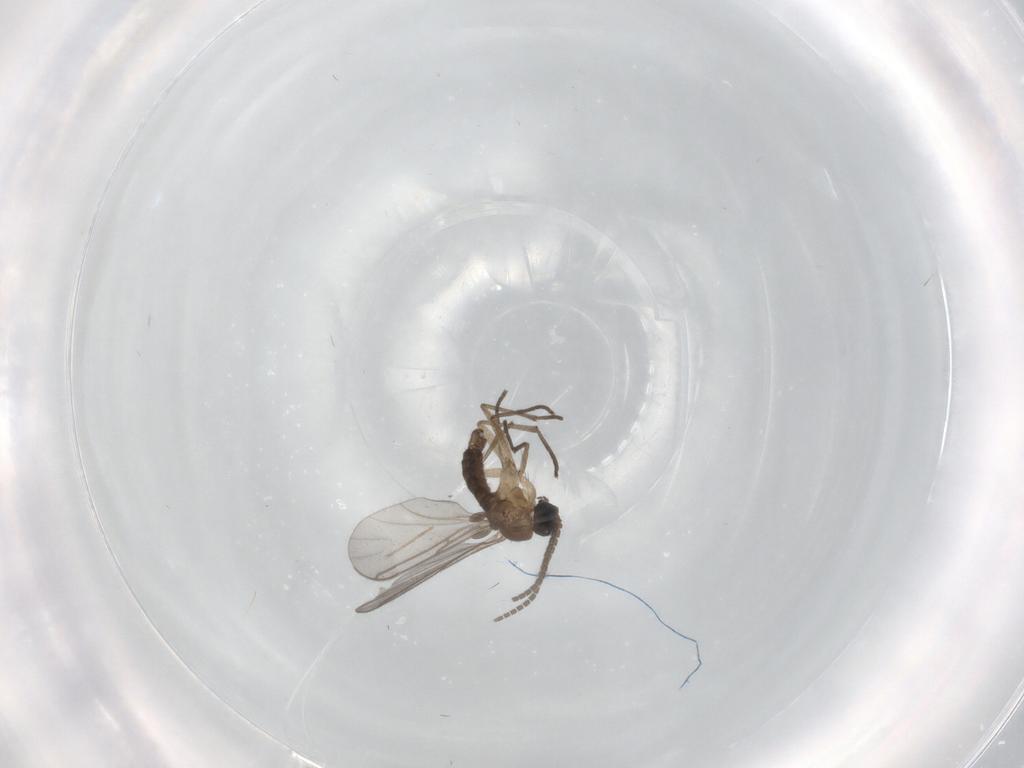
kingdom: Animalia
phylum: Arthropoda
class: Insecta
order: Diptera
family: Sciaridae
